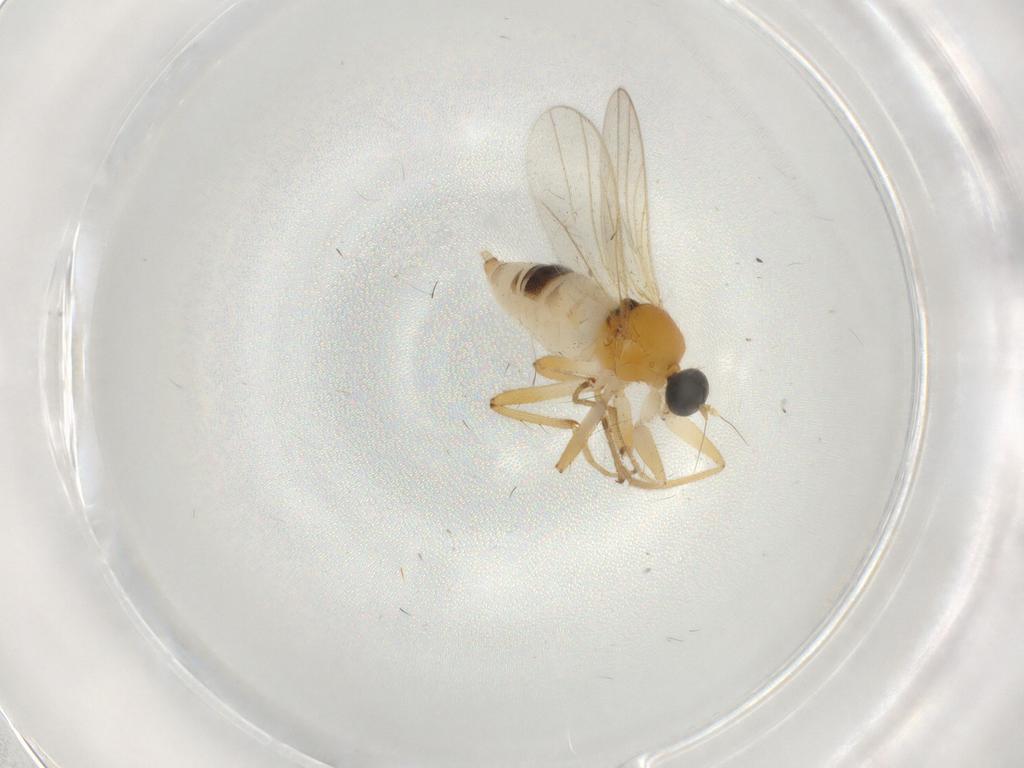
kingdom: Animalia
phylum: Arthropoda
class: Insecta
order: Diptera
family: Hybotidae
